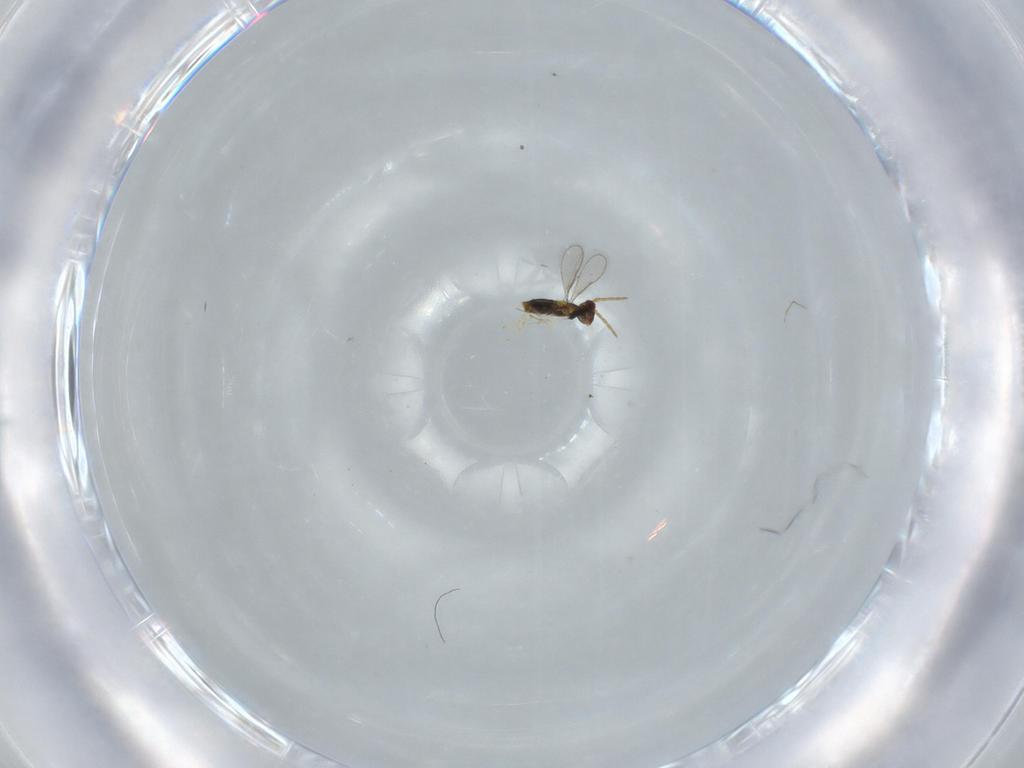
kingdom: Animalia
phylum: Arthropoda
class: Insecta
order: Hymenoptera
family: Aphelinidae
